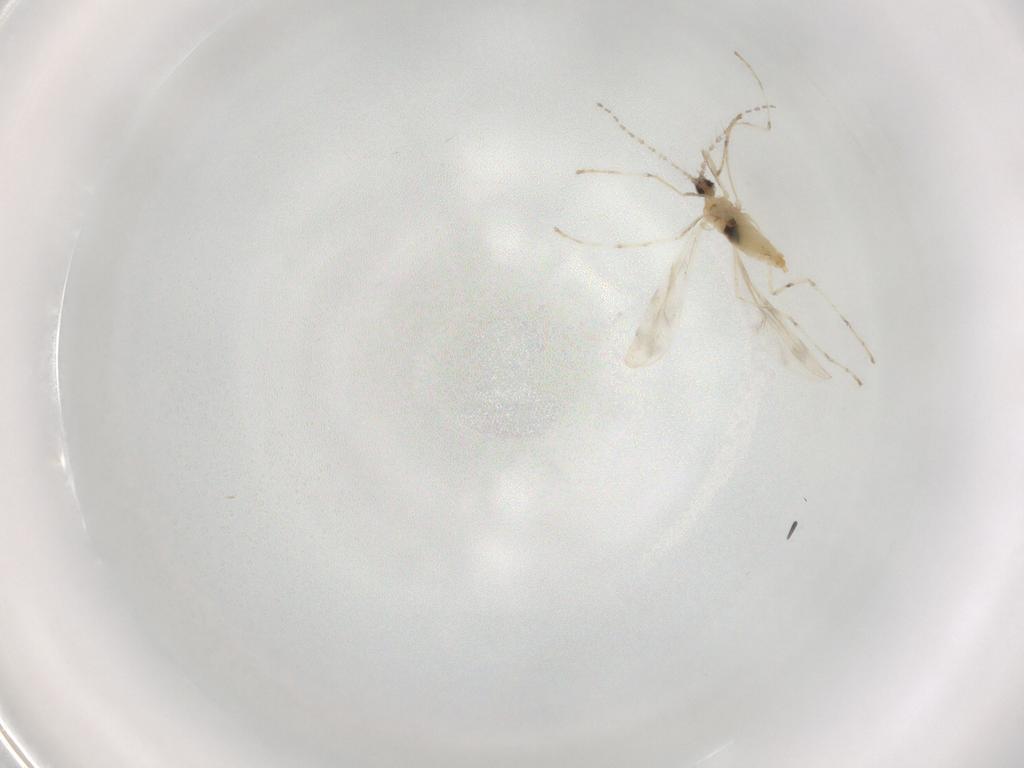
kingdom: Animalia
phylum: Arthropoda
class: Insecta
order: Diptera
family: Cecidomyiidae
